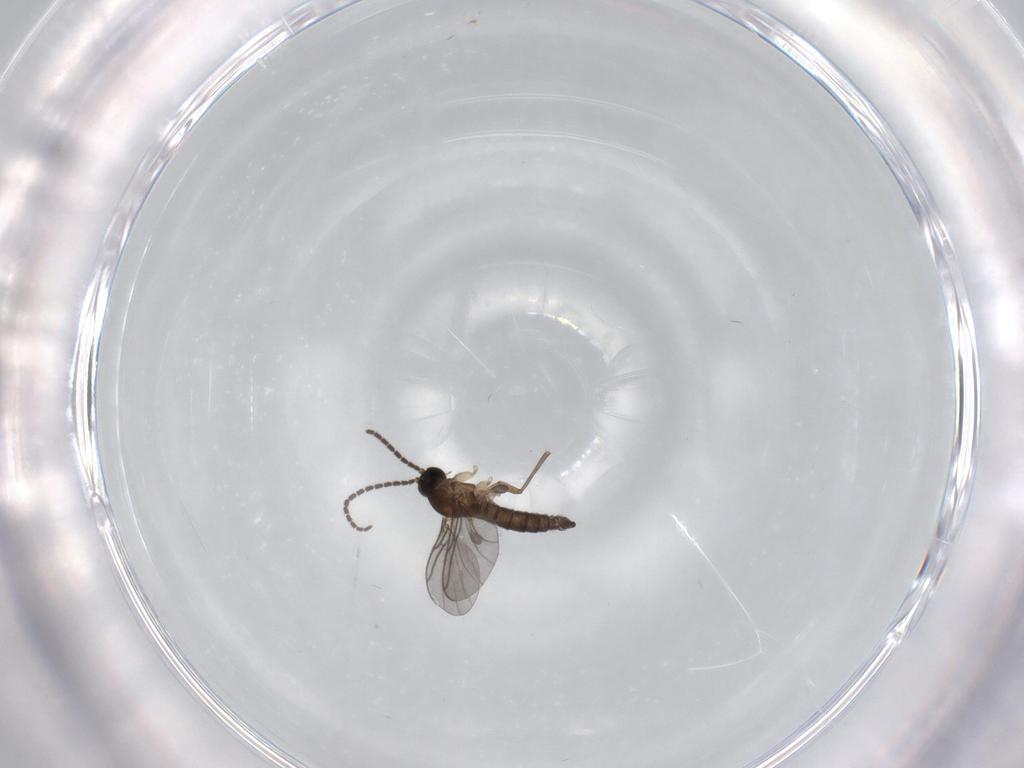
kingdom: Animalia
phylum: Arthropoda
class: Insecta
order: Diptera
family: Sciaridae
